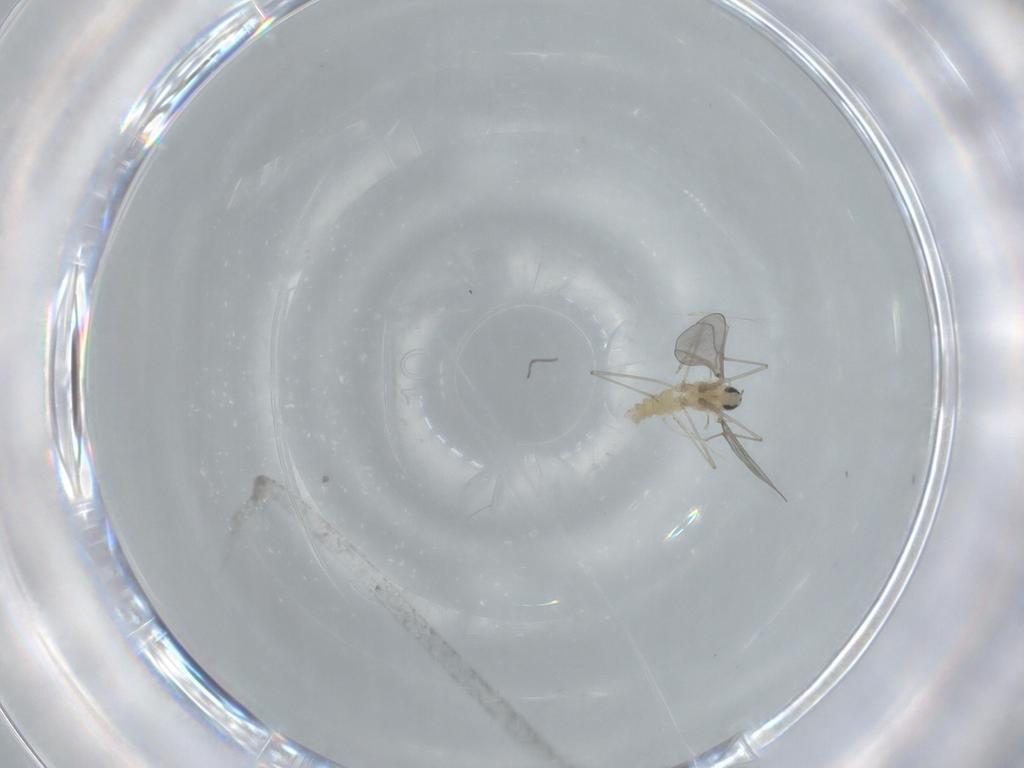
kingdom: Animalia
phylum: Arthropoda
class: Insecta
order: Diptera
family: Cecidomyiidae
